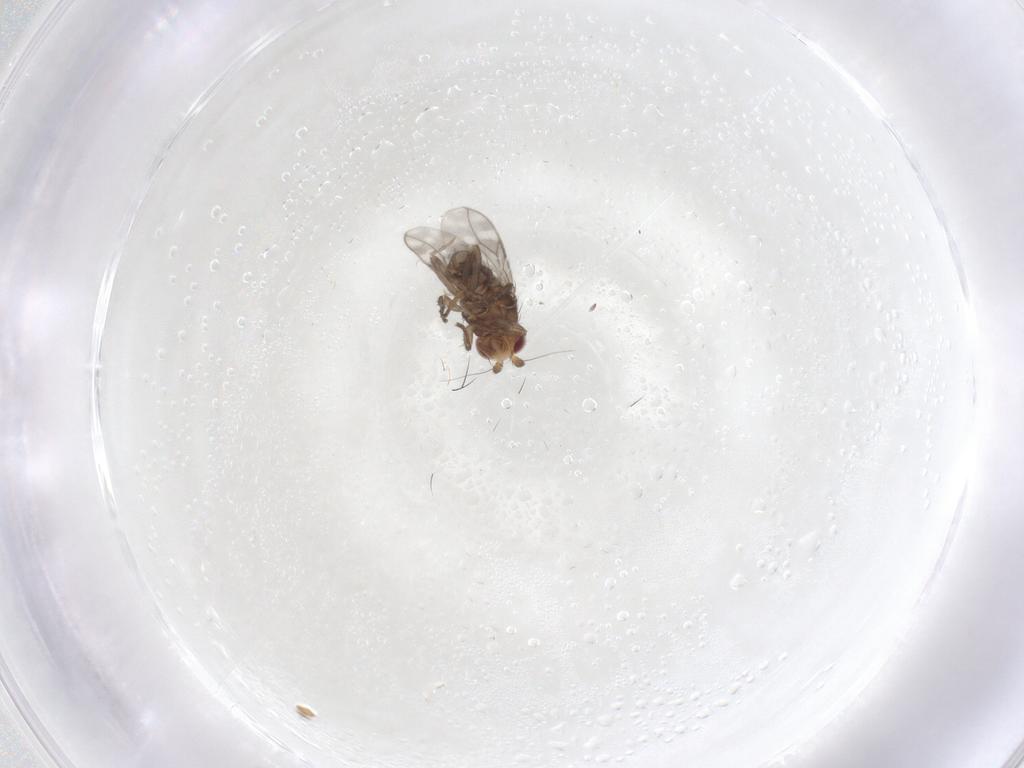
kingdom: Animalia
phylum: Arthropoda
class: Insecta
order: Diptera
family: Sphaeroceridae
